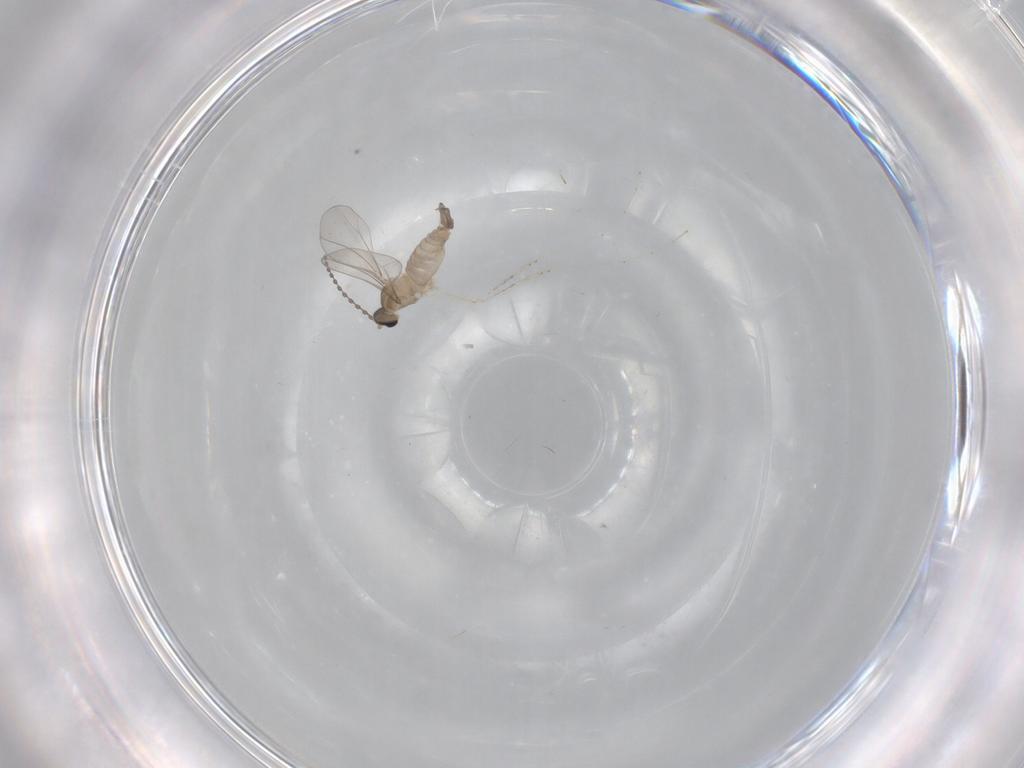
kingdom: Animalia
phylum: Arthropoda
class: Insecta
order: Diptera
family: Cecidomyiidae
